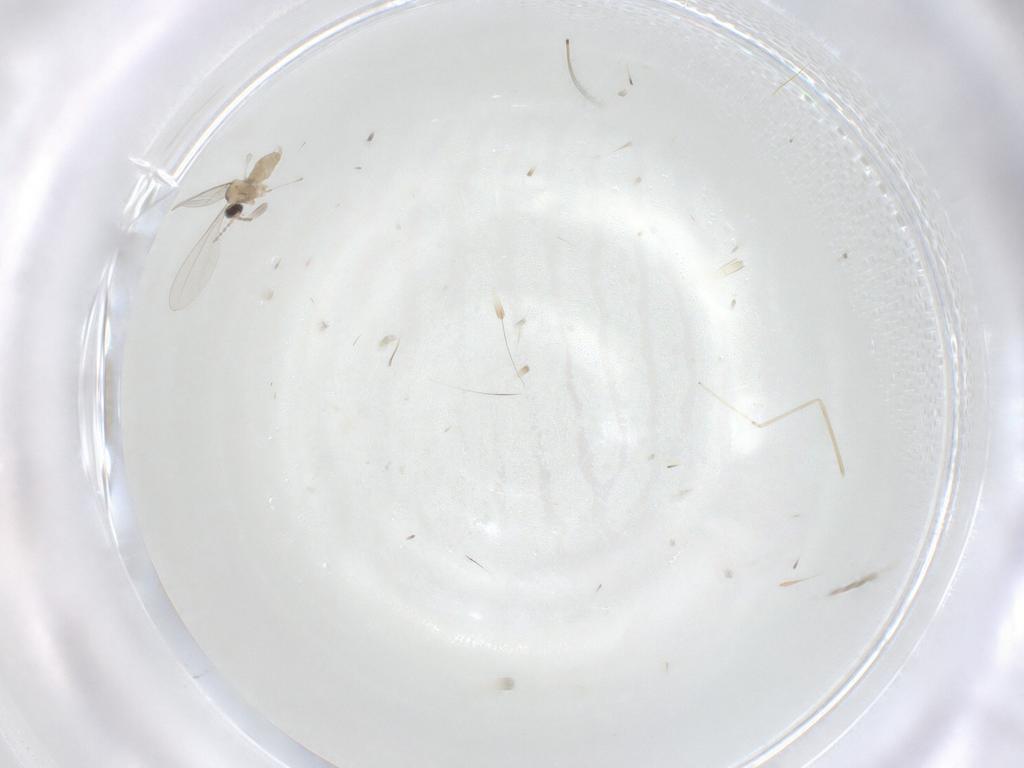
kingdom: Animalia
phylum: Arthropoda
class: Insecta
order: Diptera
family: Cecidomyiidae
